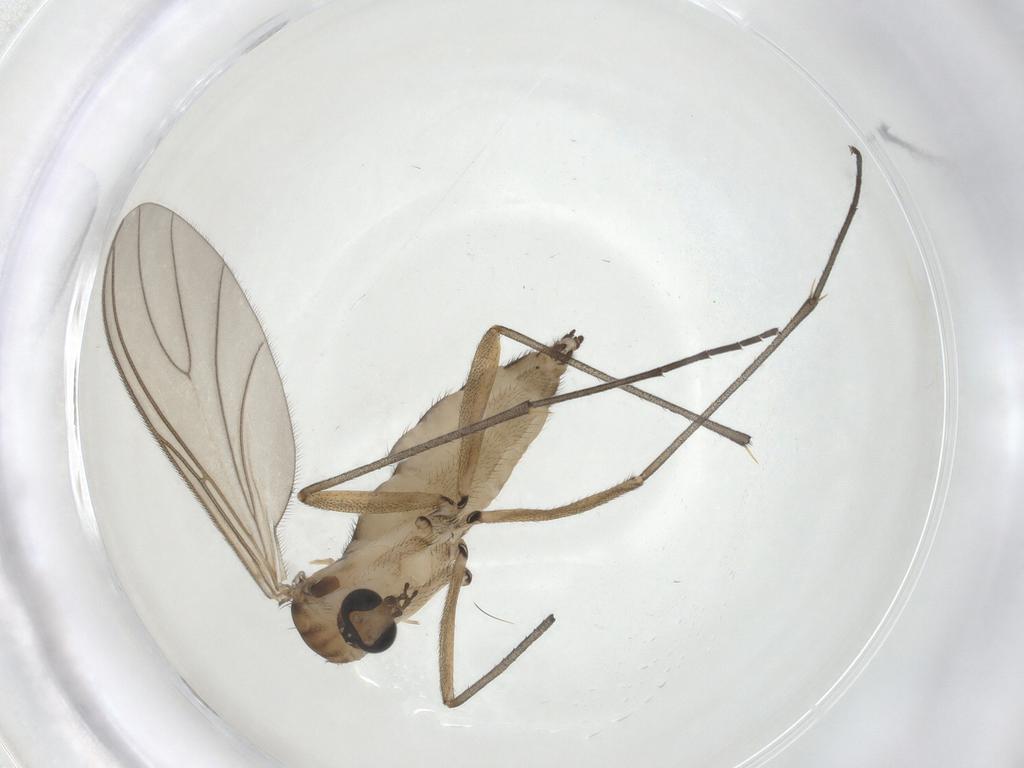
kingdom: Animalia
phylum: Arthropoda
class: Insecta
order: Diptera
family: Sciaridae
